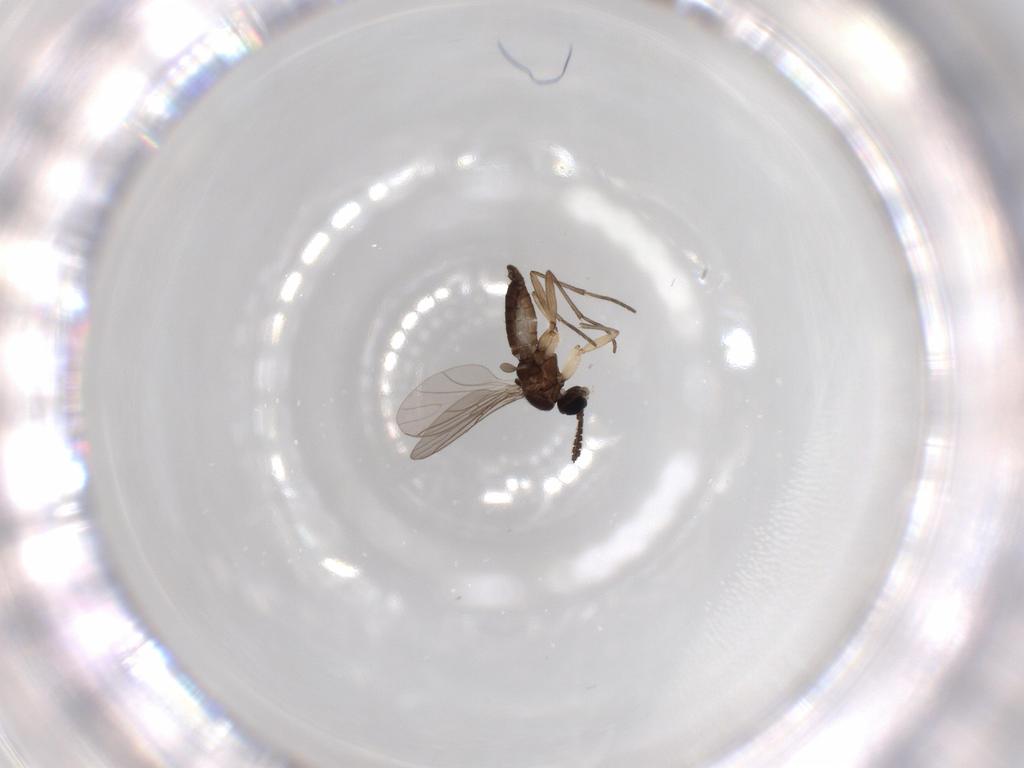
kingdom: Animalia
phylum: Arthropoda
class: Insecta
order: Diptera
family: Sciaridae
